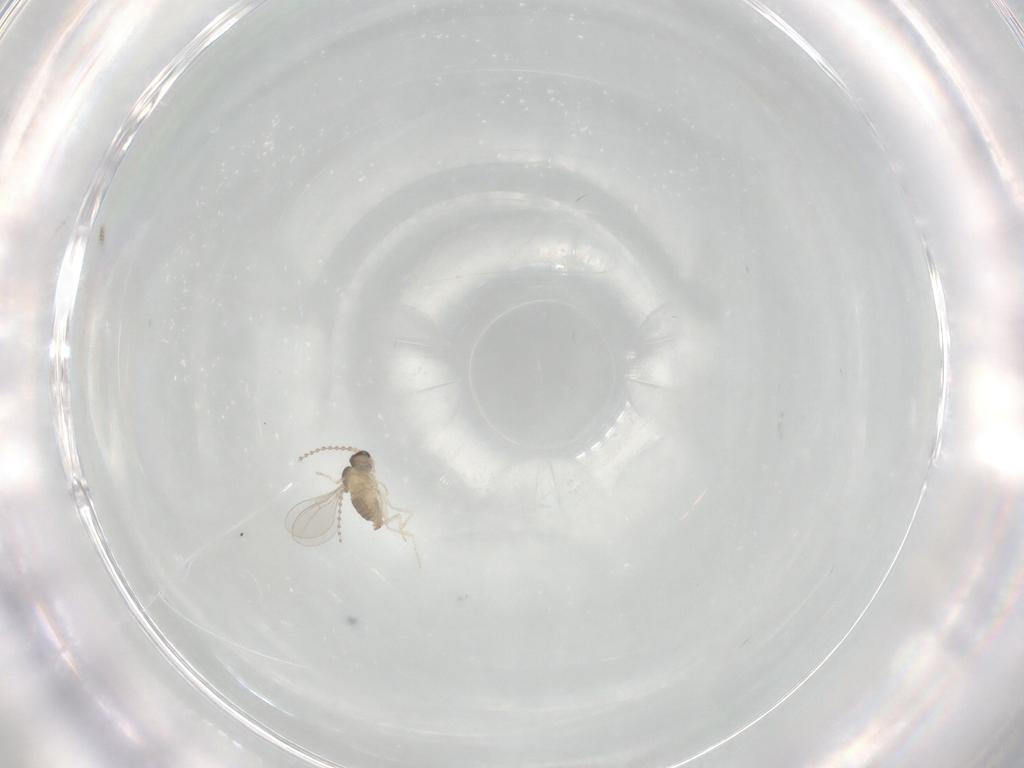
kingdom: Animalia
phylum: Arthropoda
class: Insecta
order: Diptera
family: Cecidomyiidae
